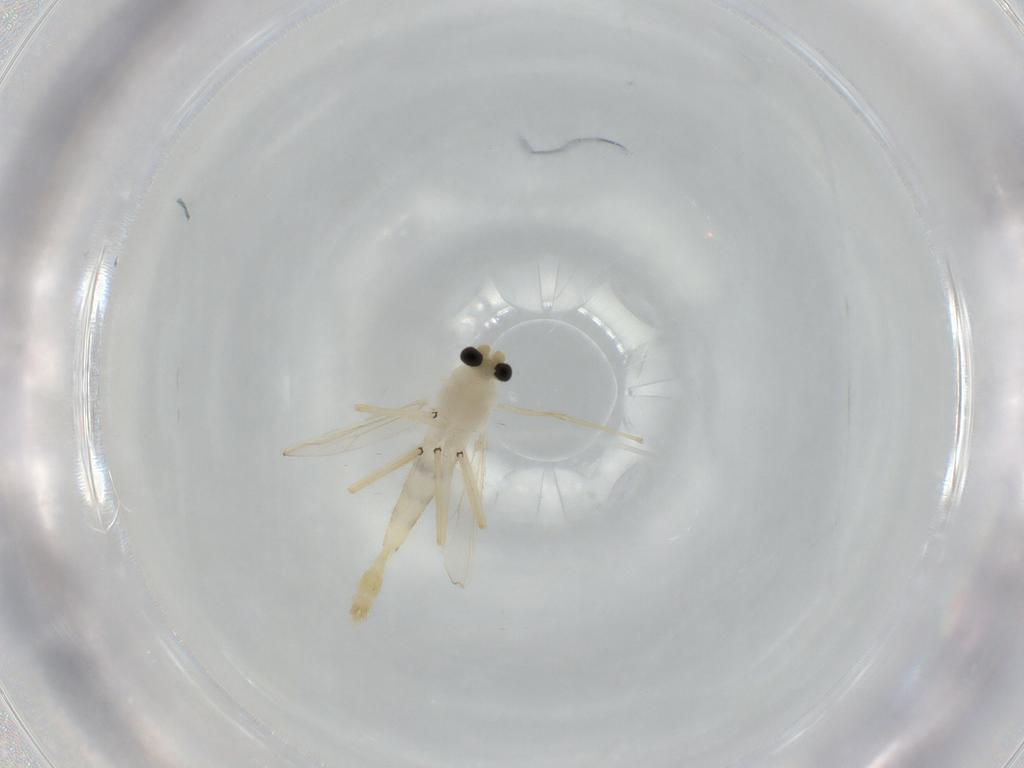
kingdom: Animalia
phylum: Arthropoda
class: Insecta
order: Diptera
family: Chironomidae
